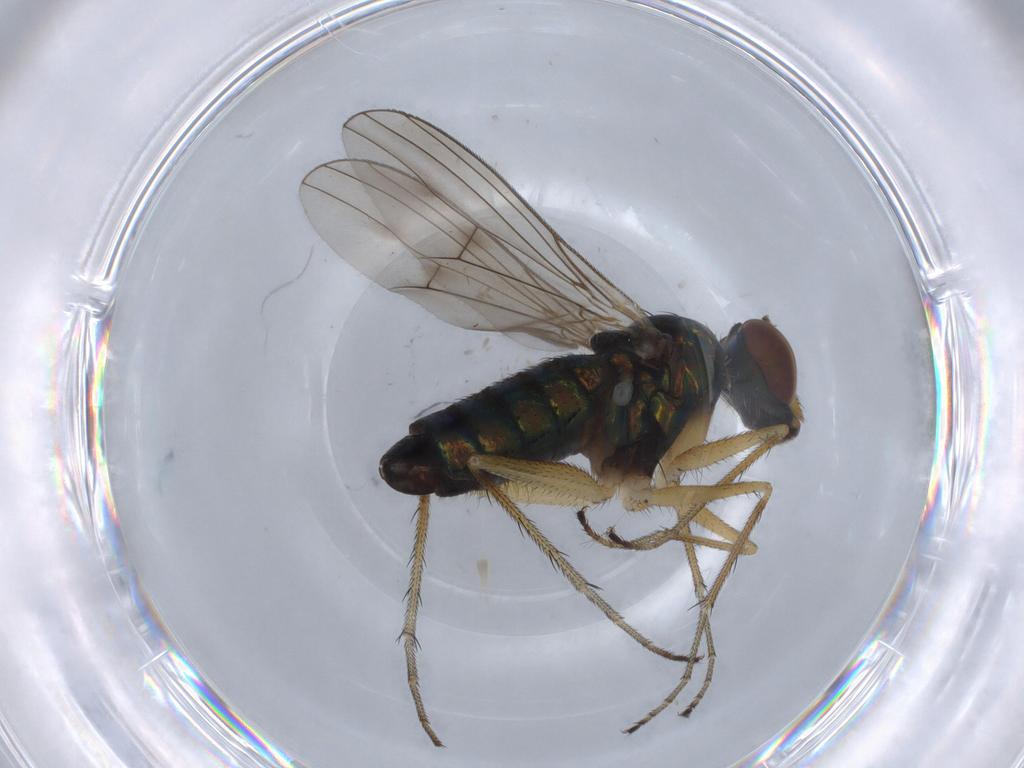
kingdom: Animalia
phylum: Arthropoda
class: Insecta
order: Diptera
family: Dolichopodidae
